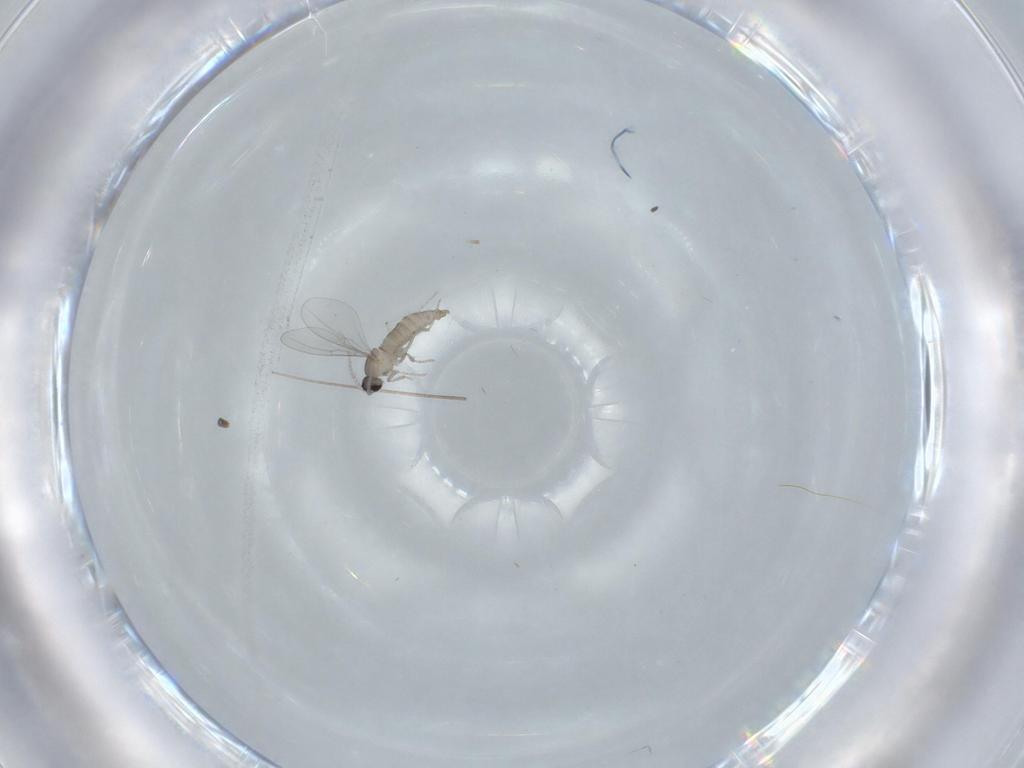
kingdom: Animalia
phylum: Arthropoda
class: Insecta
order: Diptera
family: Cecidomyiidae
